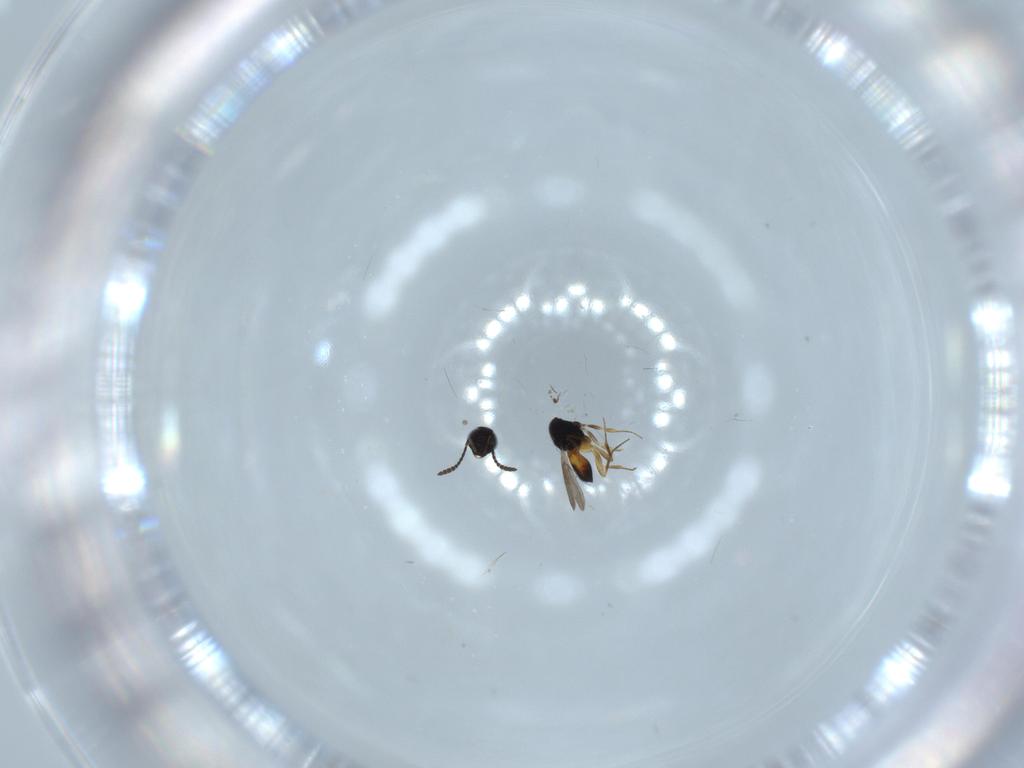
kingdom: Animalia
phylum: Arthropoda
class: Insecta
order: Hymenoptera
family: Scelionidae
